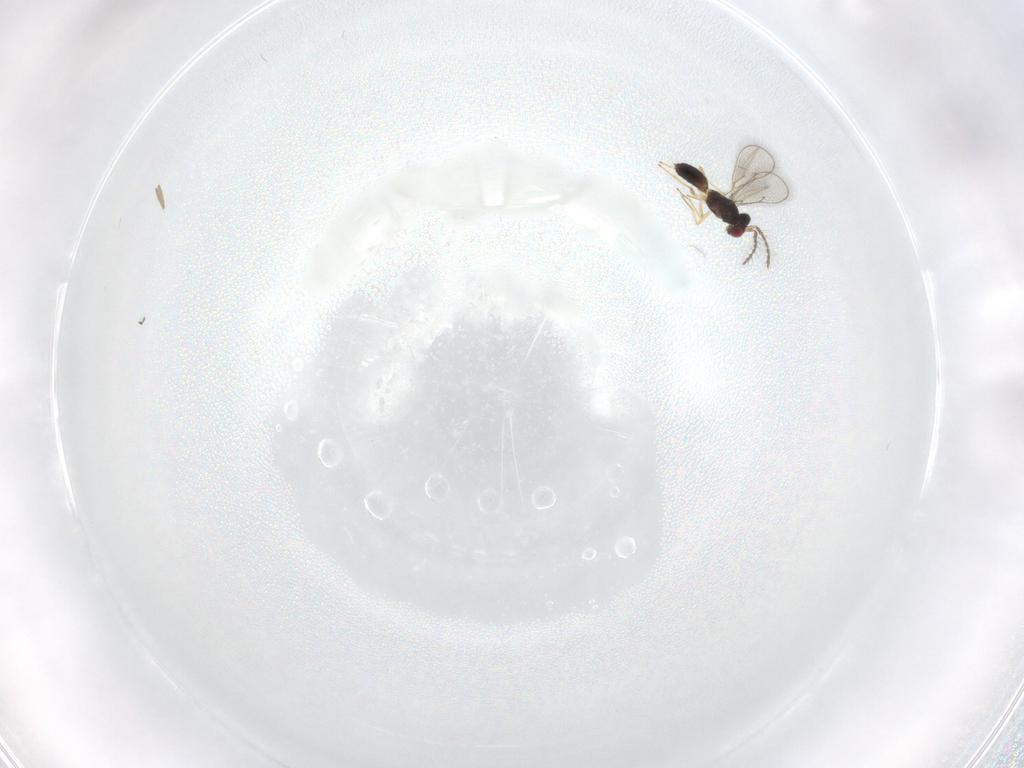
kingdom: Animalia
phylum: Arthropoda
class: Insecta
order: Hymenoptera
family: Eulophidae
